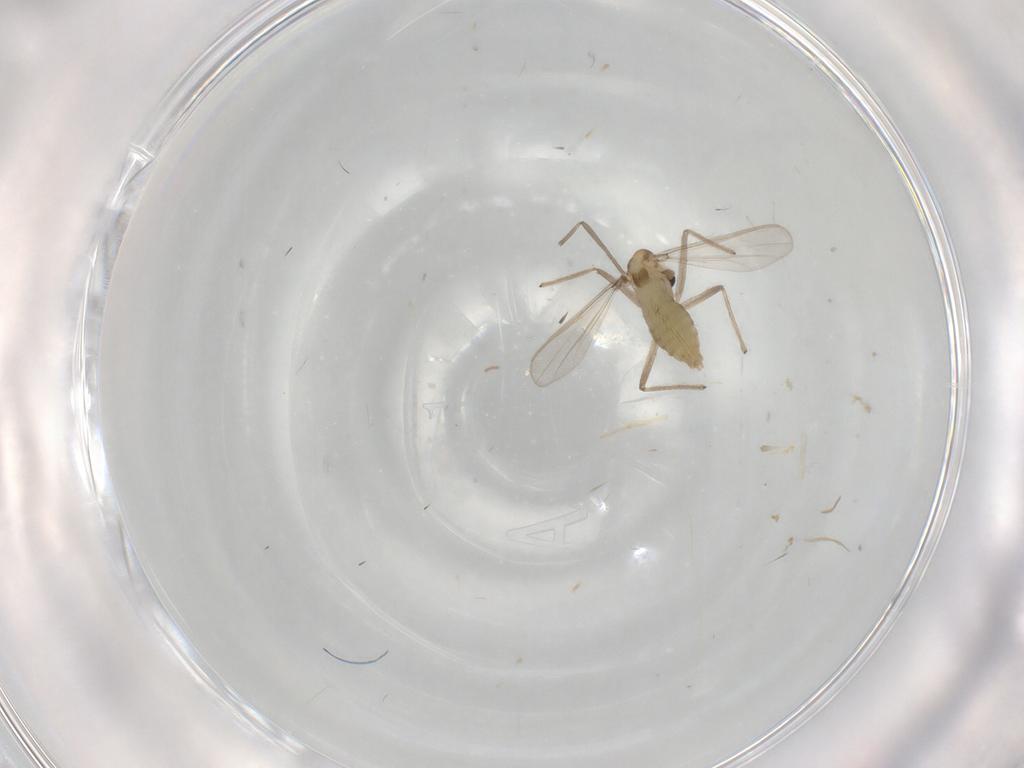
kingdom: Animalia
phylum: Arthropoda
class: Insecta
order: Diptera
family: Chironomidae
